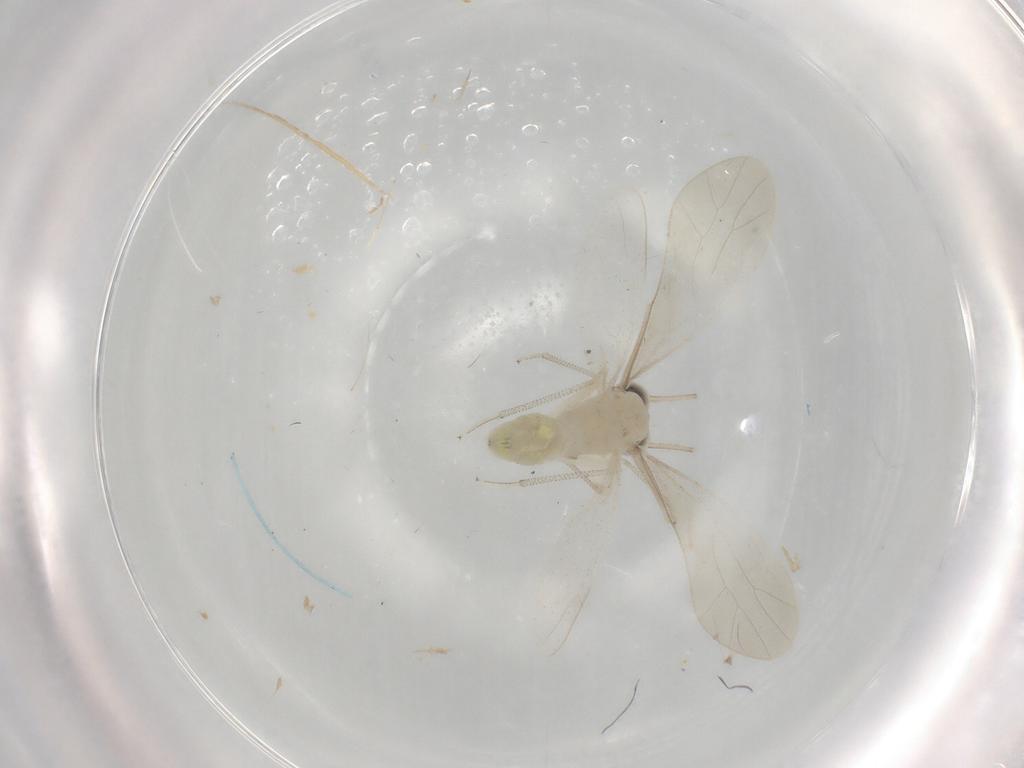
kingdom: Animalia
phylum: Arthropoda
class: Insecta
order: Psocodea
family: Caeciliusidae
